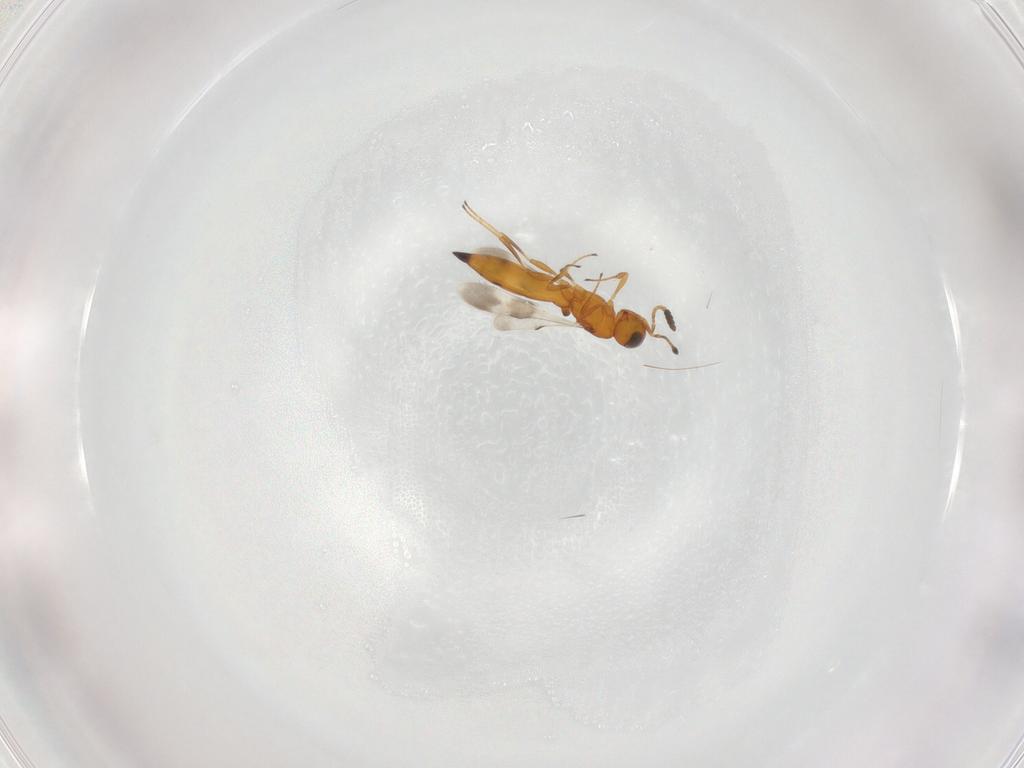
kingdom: Animalia
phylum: Arthropoda
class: Insecta
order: Hymenoptera
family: Scelionidae
